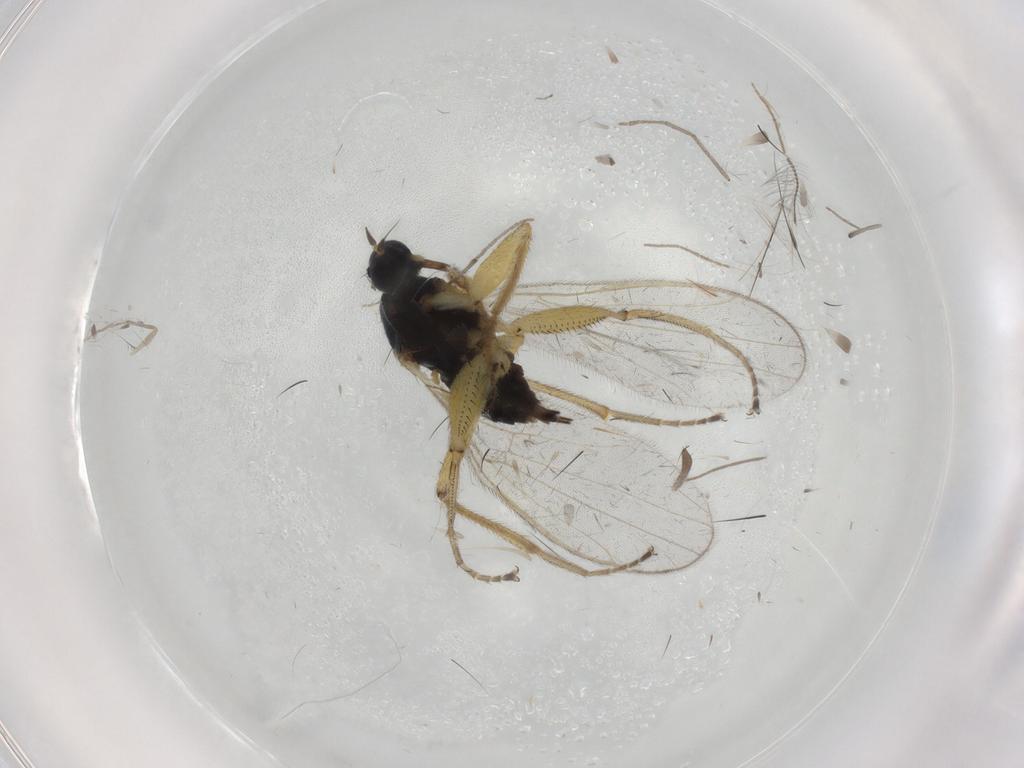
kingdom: Animalia
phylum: Arthropoda
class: Insecta
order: Diptera
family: Hybotidae
